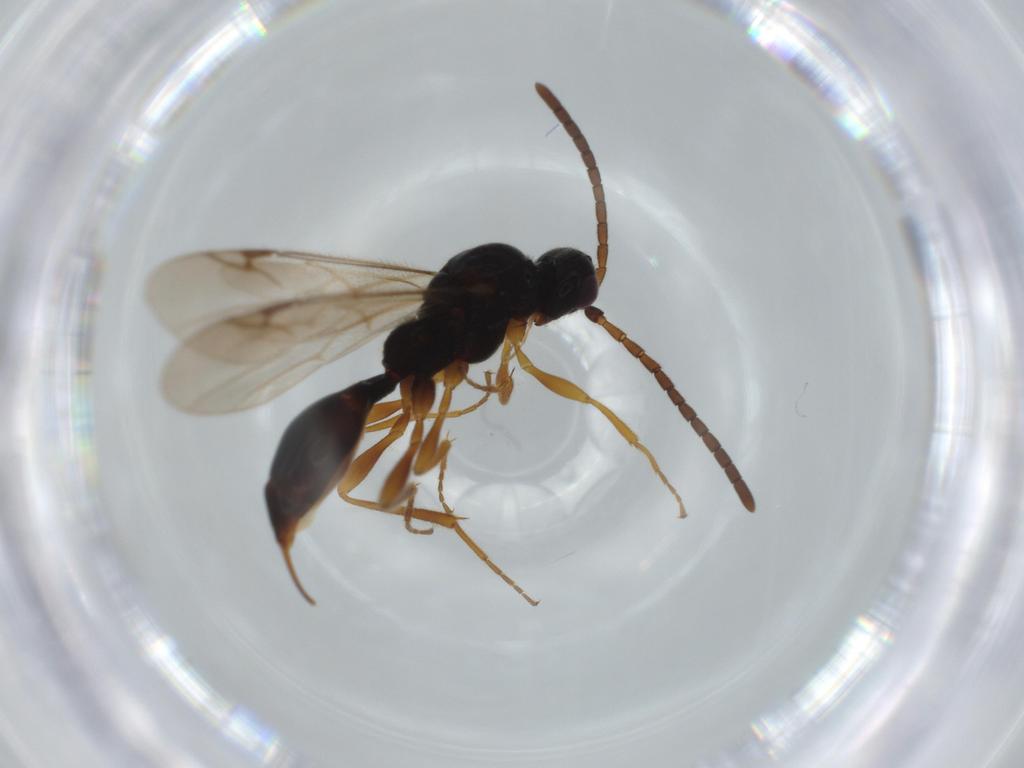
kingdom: Animalia
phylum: Arthropoda
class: Insecta
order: Hymenoptera
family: Proctotrupidae
